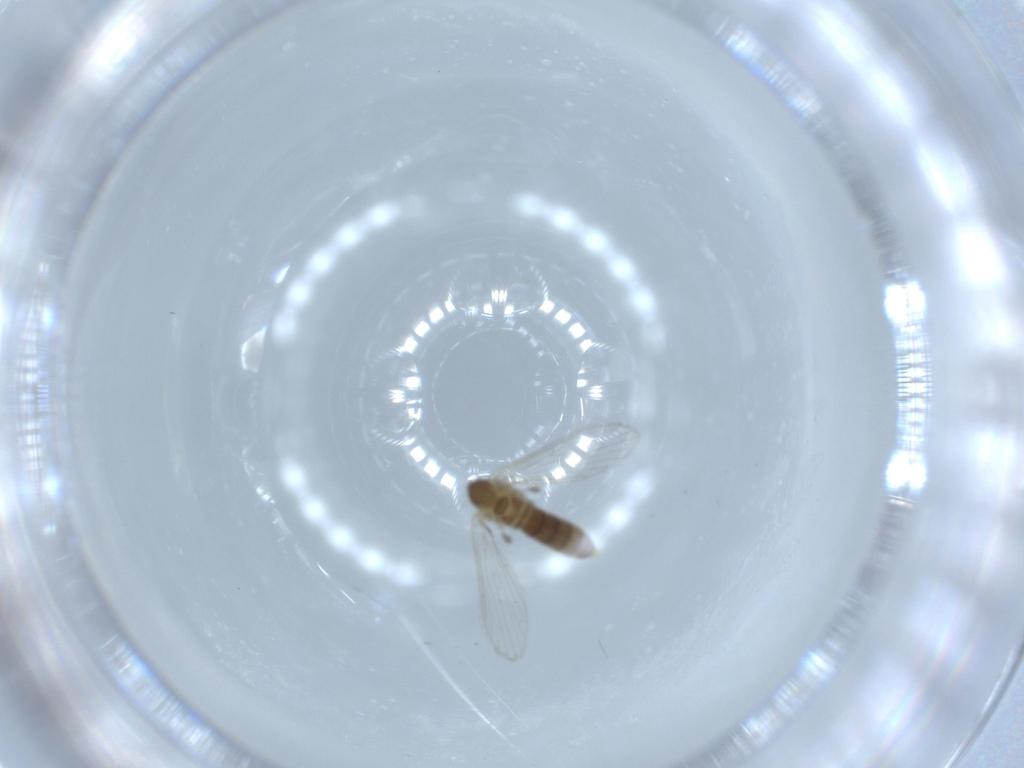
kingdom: Animalia
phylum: Arthropoda
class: Insecta
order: Diptera
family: Psychodidae
